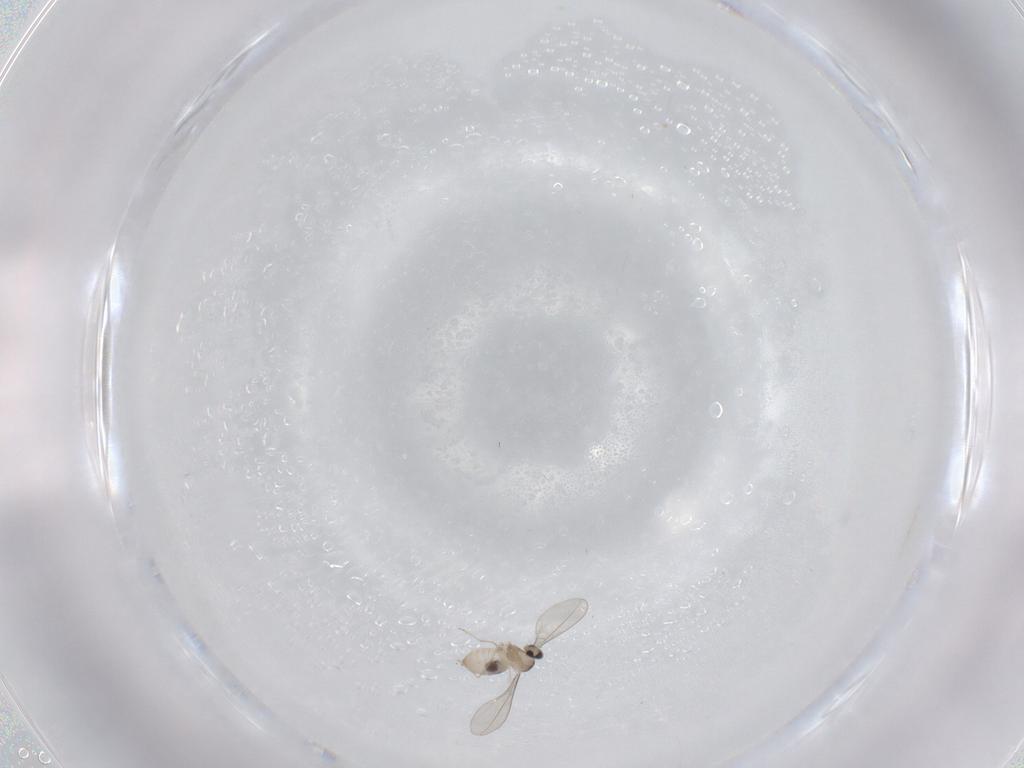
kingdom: Animalia
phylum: Arthropoda
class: Insecta
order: Diptera
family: Cecidomyiidae
